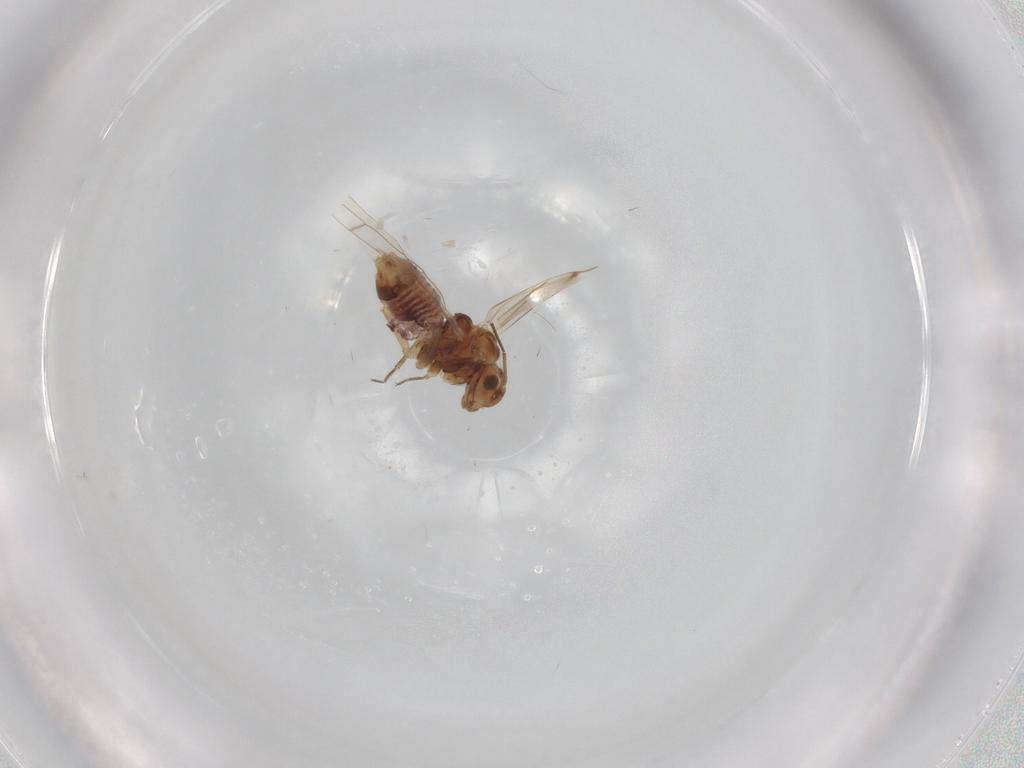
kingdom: Animalia
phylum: Arthropoda
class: Insecta
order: Psocodea
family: Lachesillidae
